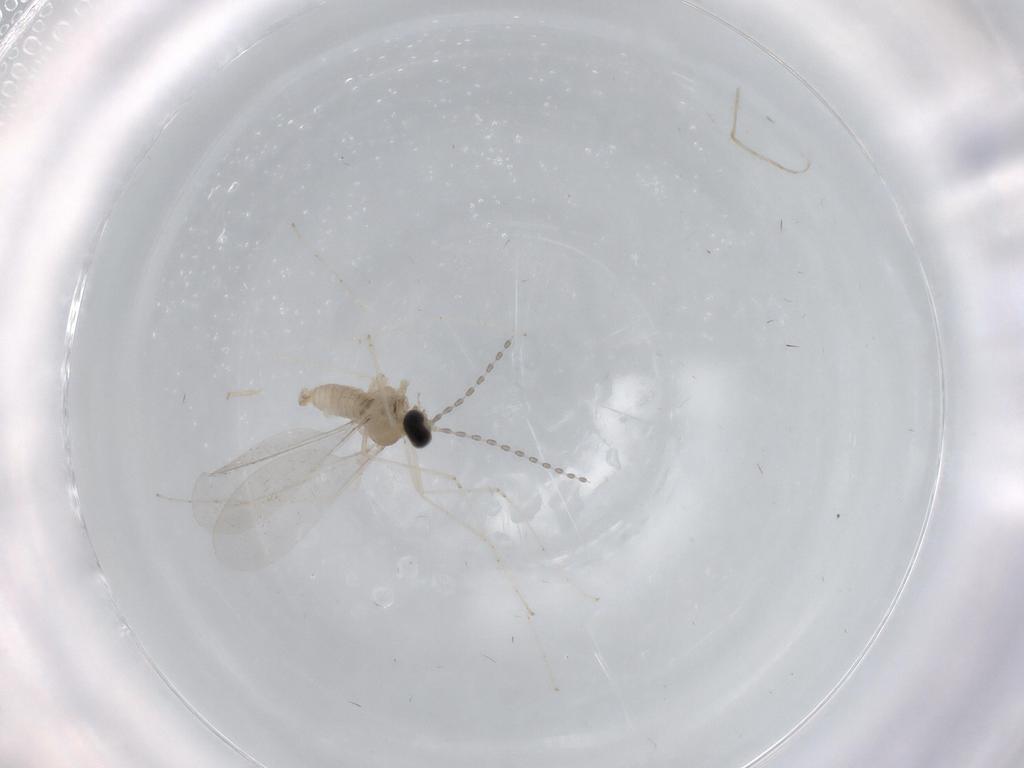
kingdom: Animalia
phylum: Arthropoda
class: Insecta
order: Diptera
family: Cecidomyiidae
